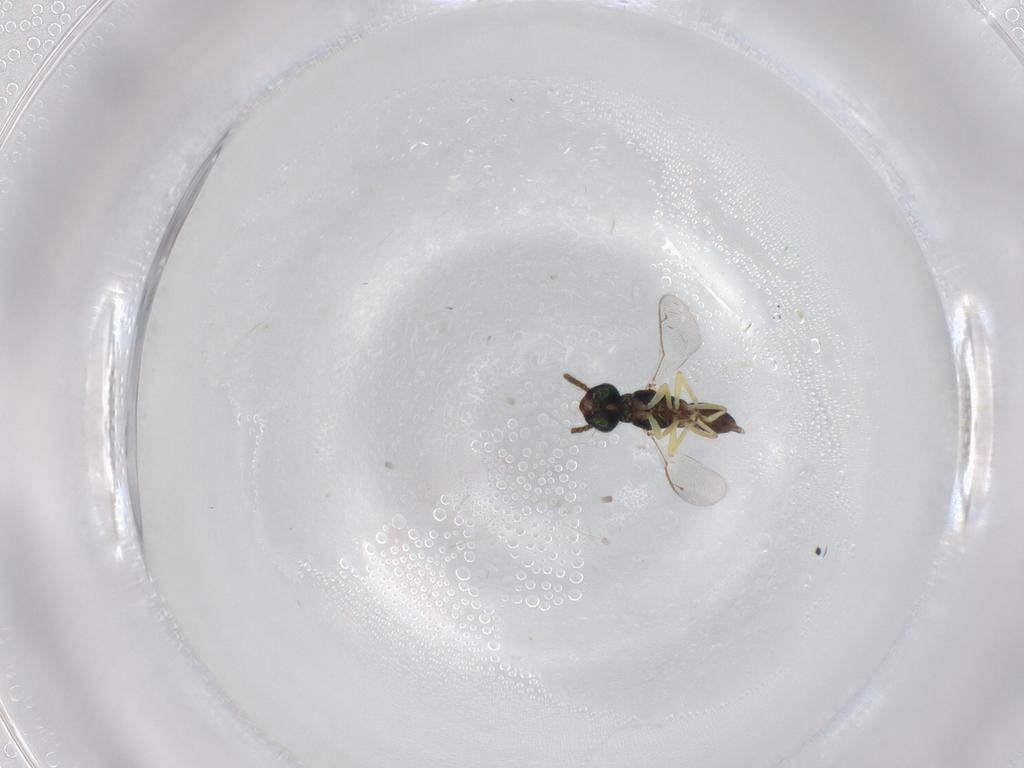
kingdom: Animalia
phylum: Arthropoda
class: Insecta
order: Hymenoptera
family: Eupelmidae
